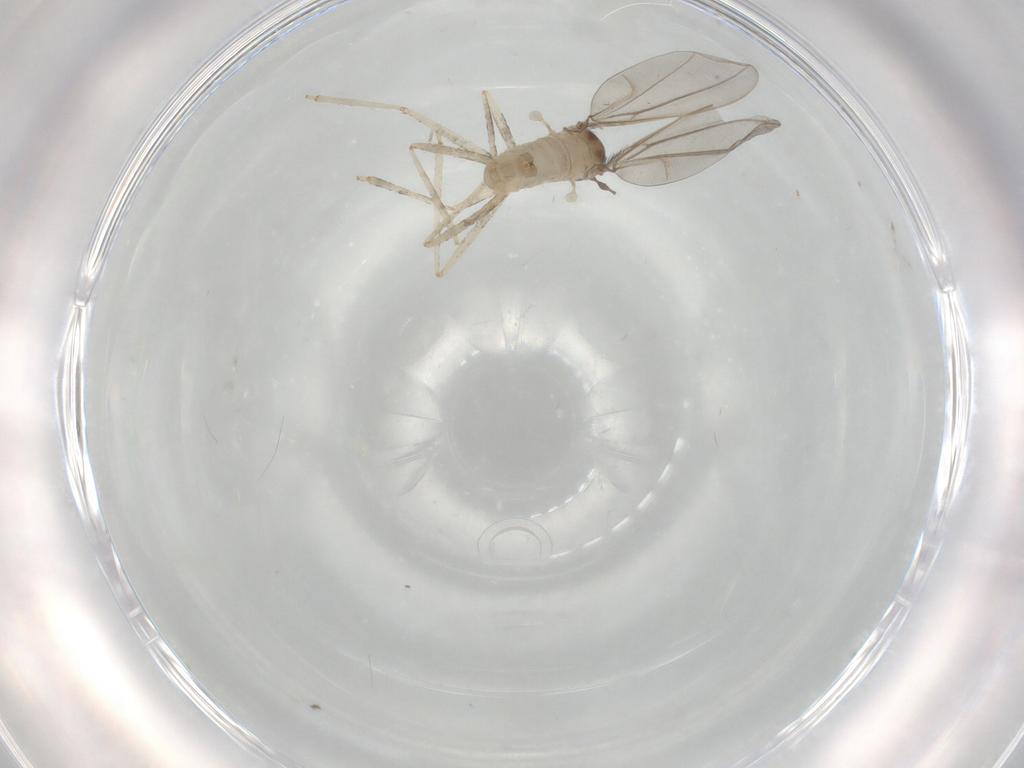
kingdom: Animalia
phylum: Arthropoda
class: Insecta
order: Diptera
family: Cecidomyiidae
